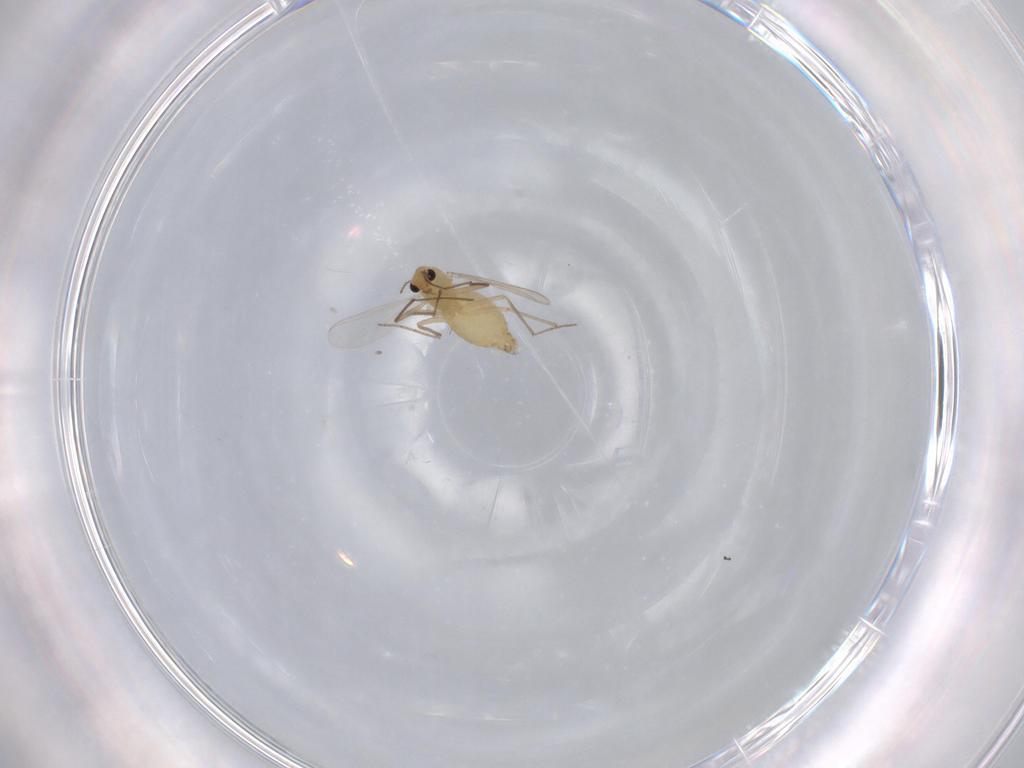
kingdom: Animalia
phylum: Arthropoda
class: Insecta
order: Diptera
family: Chironomidae
